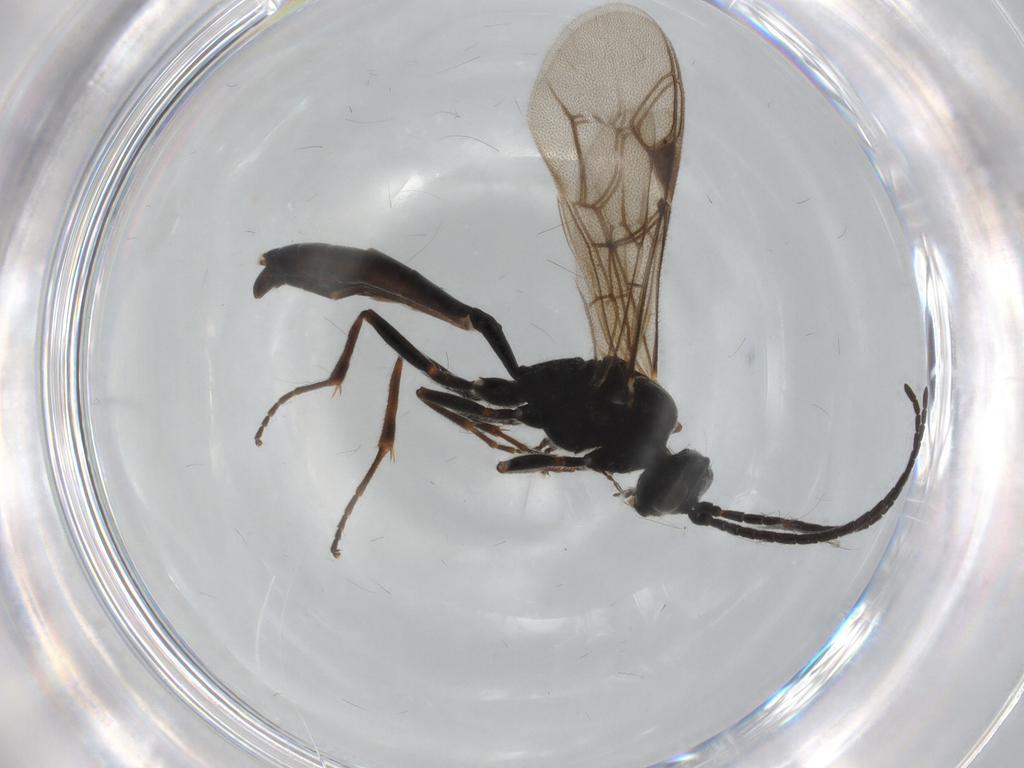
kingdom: Animalia
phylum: Arthropoda
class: Insecta
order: Hymenoptera
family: Ichneumonidae
